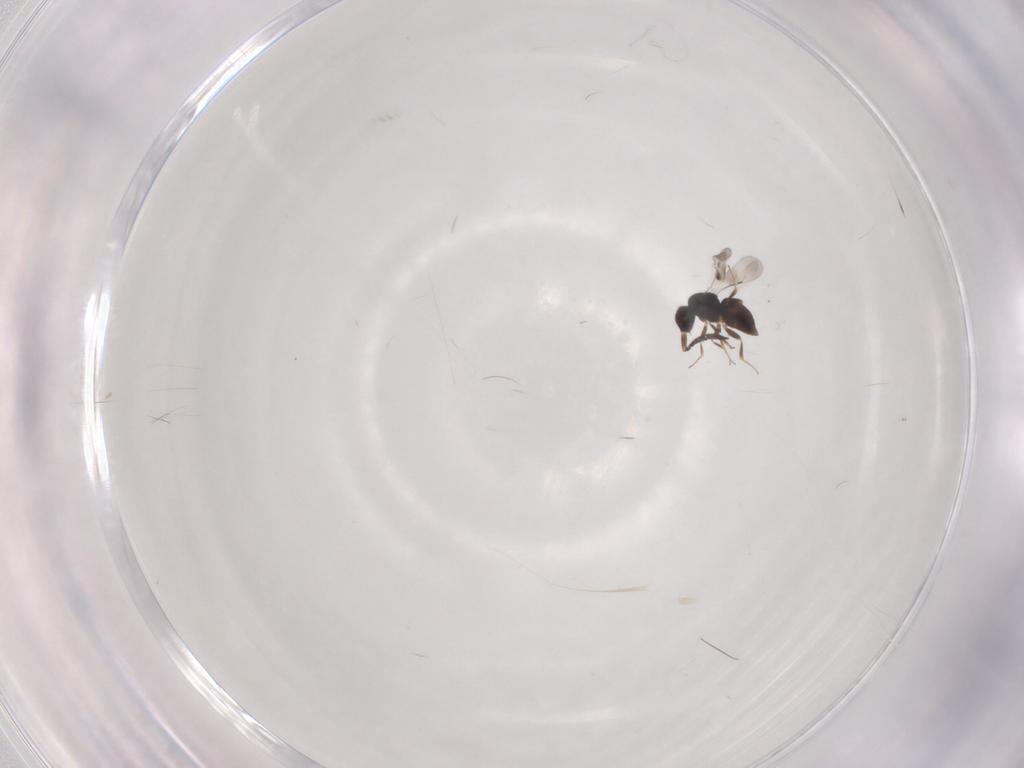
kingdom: Animalia
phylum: Arthropoda
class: Insecta
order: Hymenoptera
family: Ceraphronidae
